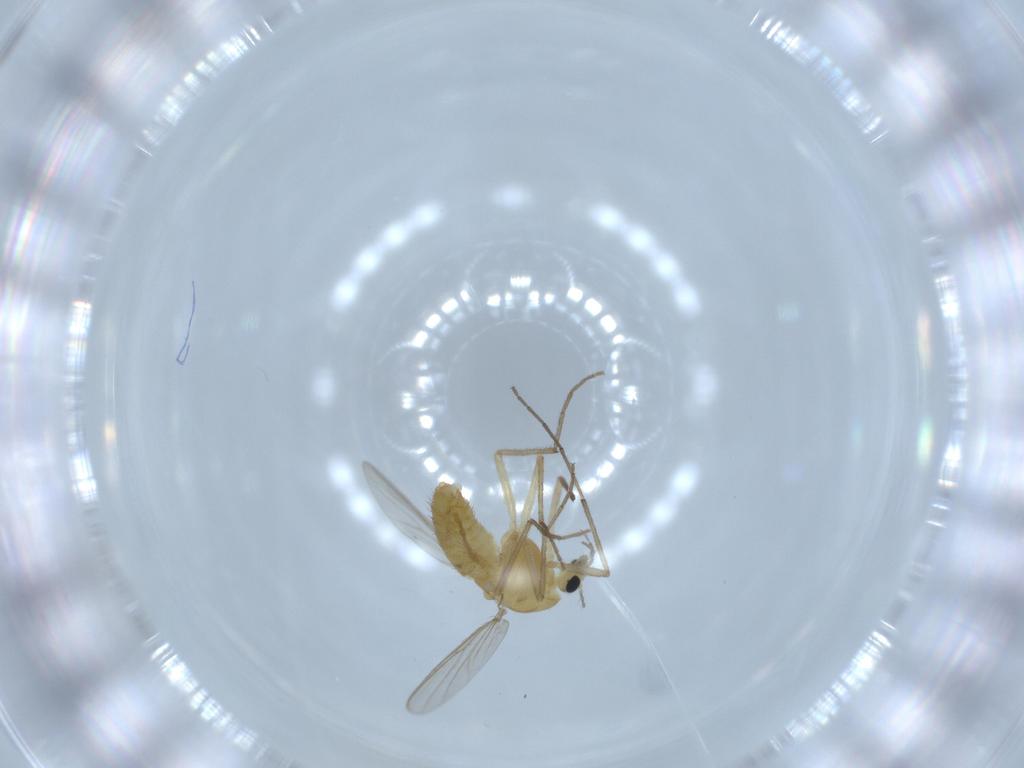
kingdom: Animalia
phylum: Arthropoda
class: Insecta
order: Diptera
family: Chironomidae
